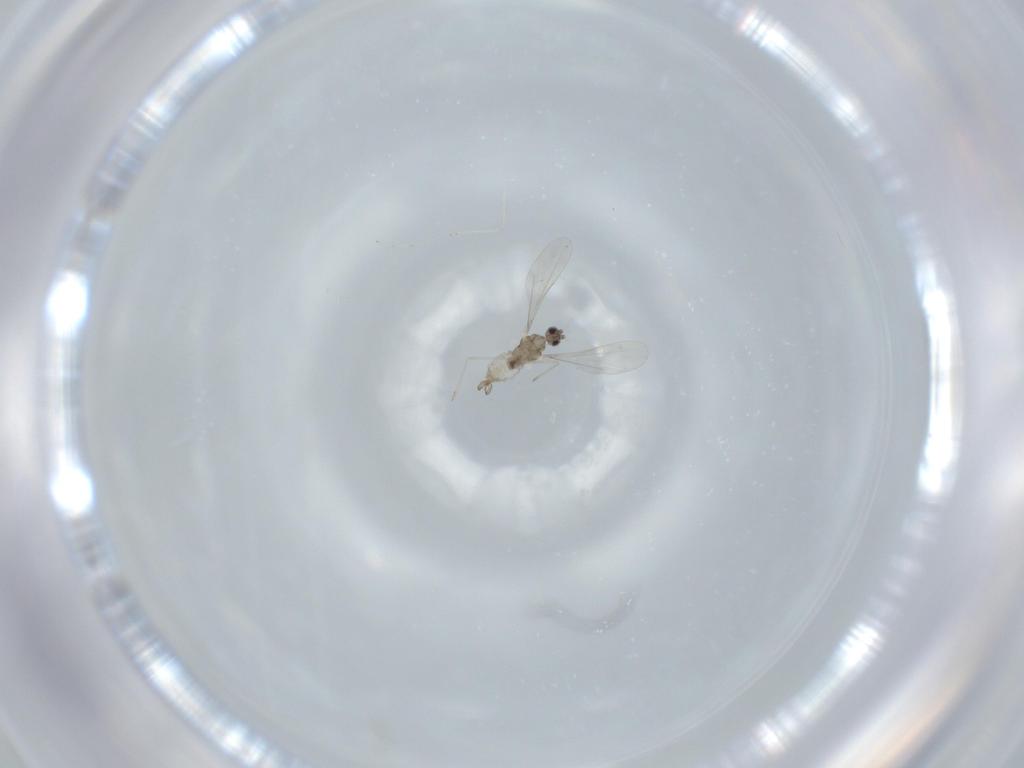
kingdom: Animalia
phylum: Arthropoda
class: Insecta
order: Diptera
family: Cecidomyiidae
